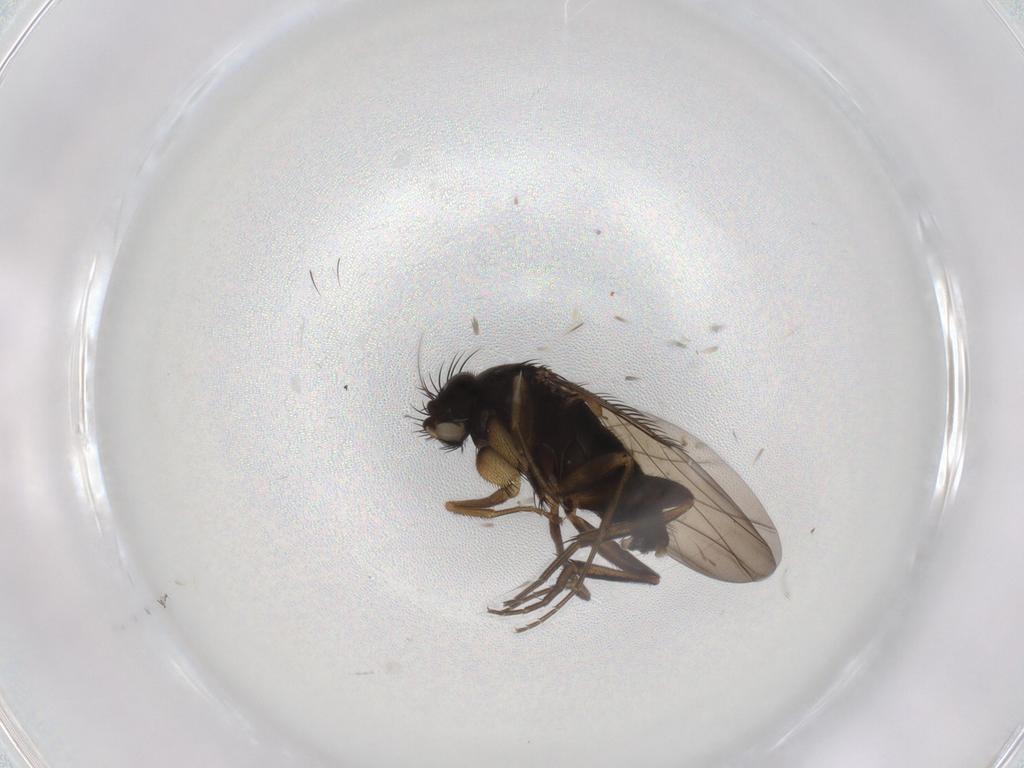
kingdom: Animalia
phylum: Arthropoda
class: Insecta
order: Diptera
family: Phoridae
